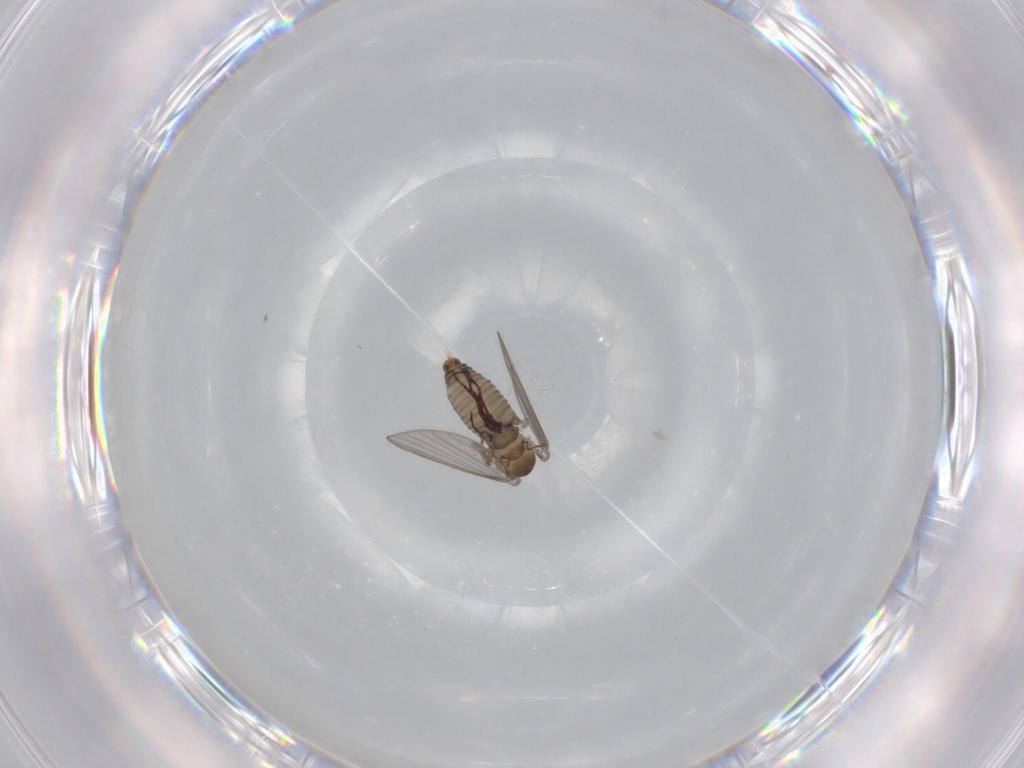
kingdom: Animalia
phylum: Arthropoda
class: Insecta
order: Diptera
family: Psychodidae
